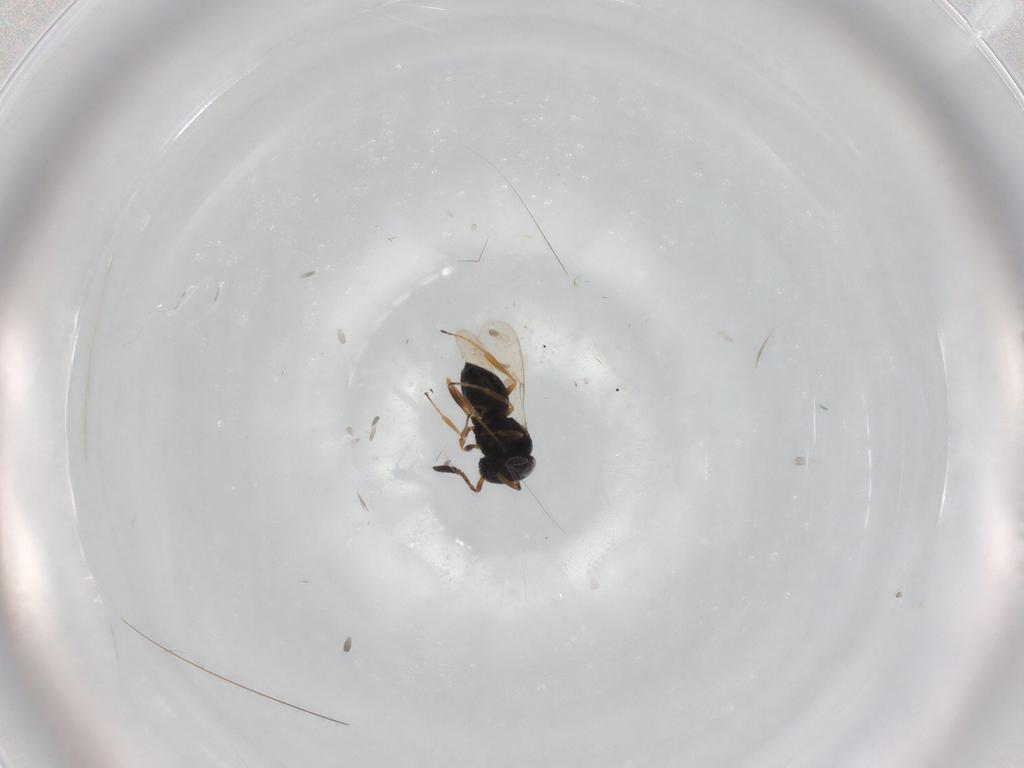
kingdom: Animalia
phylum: Arthropoda
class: Insecta
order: Hymenoptera
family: Scelionidae
